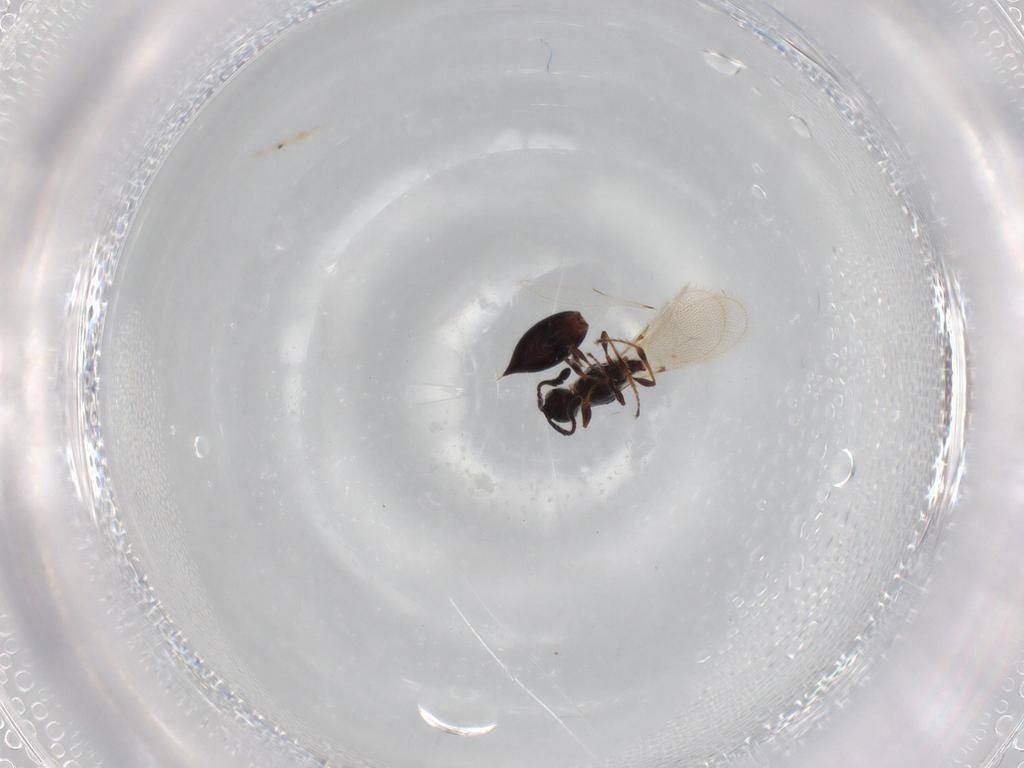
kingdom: Animalia
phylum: Arthropoda
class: Insecta
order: Hymenoptera
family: Diapriidae
